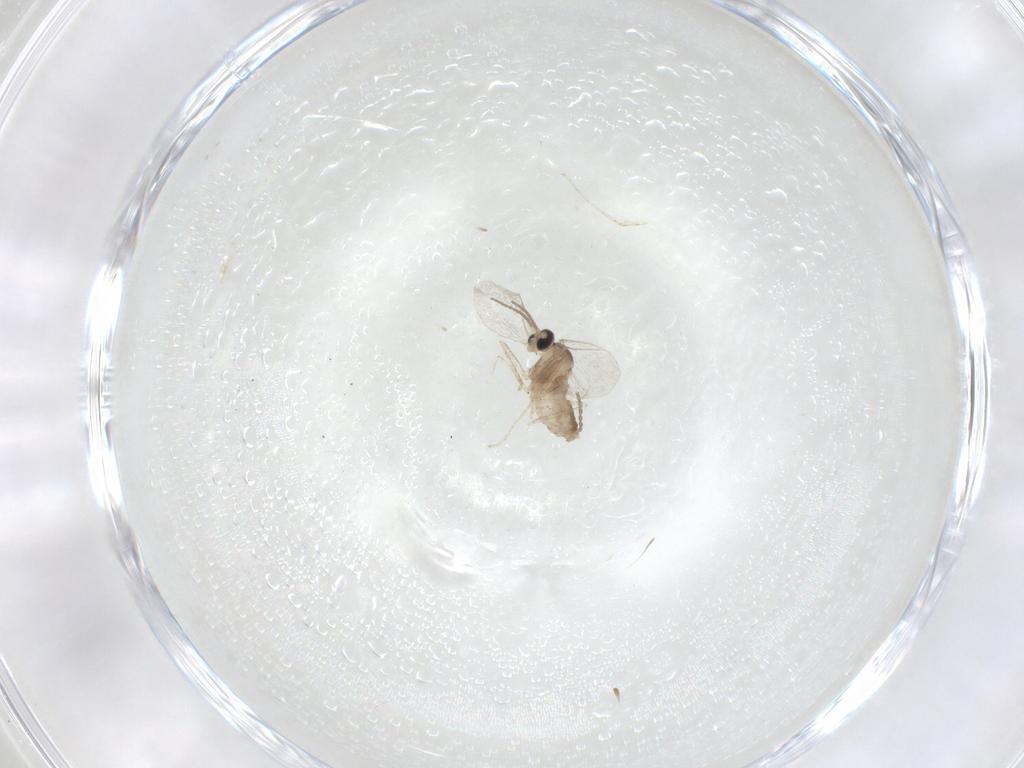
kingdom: Animalia
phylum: Arthropoda
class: Insecta
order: Diptera
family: Cecidomyiidae
